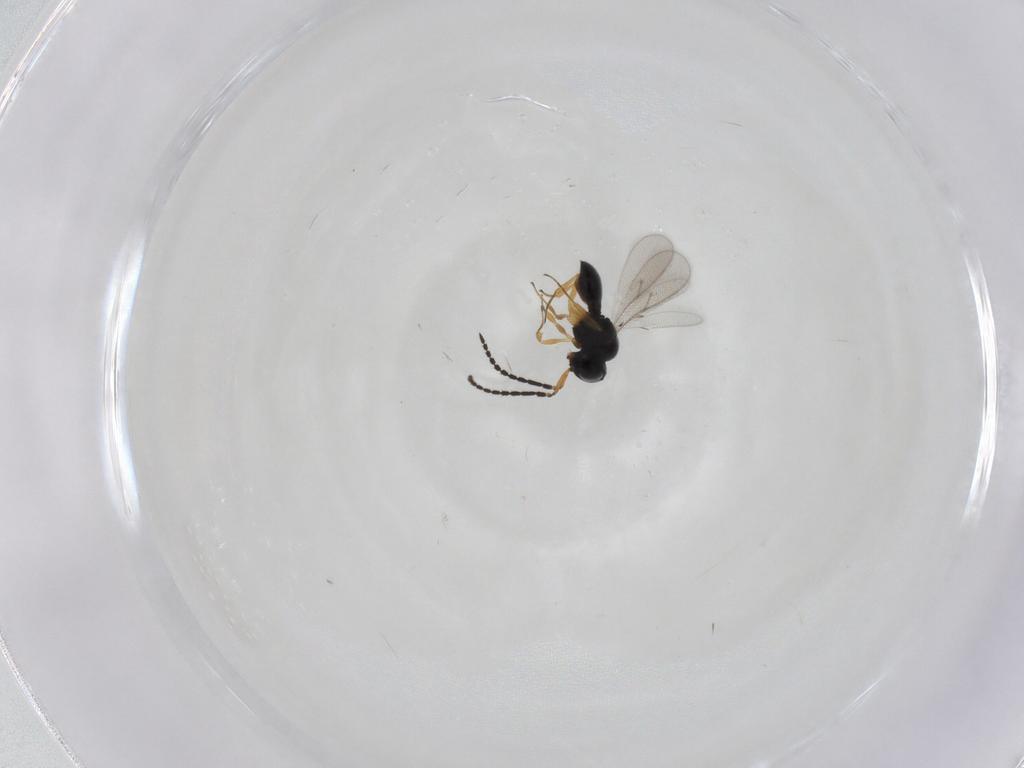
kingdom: Animalia
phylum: Arthropoda
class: Insecta
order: Hymenoptera
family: Scelionidae
